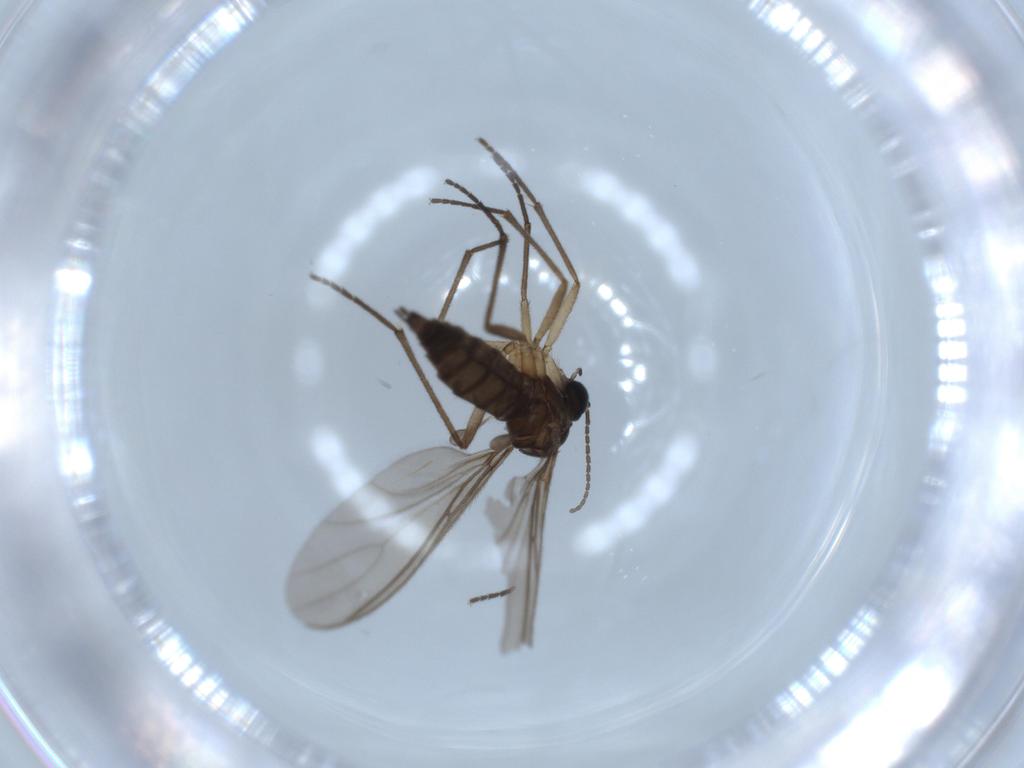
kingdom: Animalia
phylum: Arthropoda
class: Insecta
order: Diptera
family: Sciaridae
